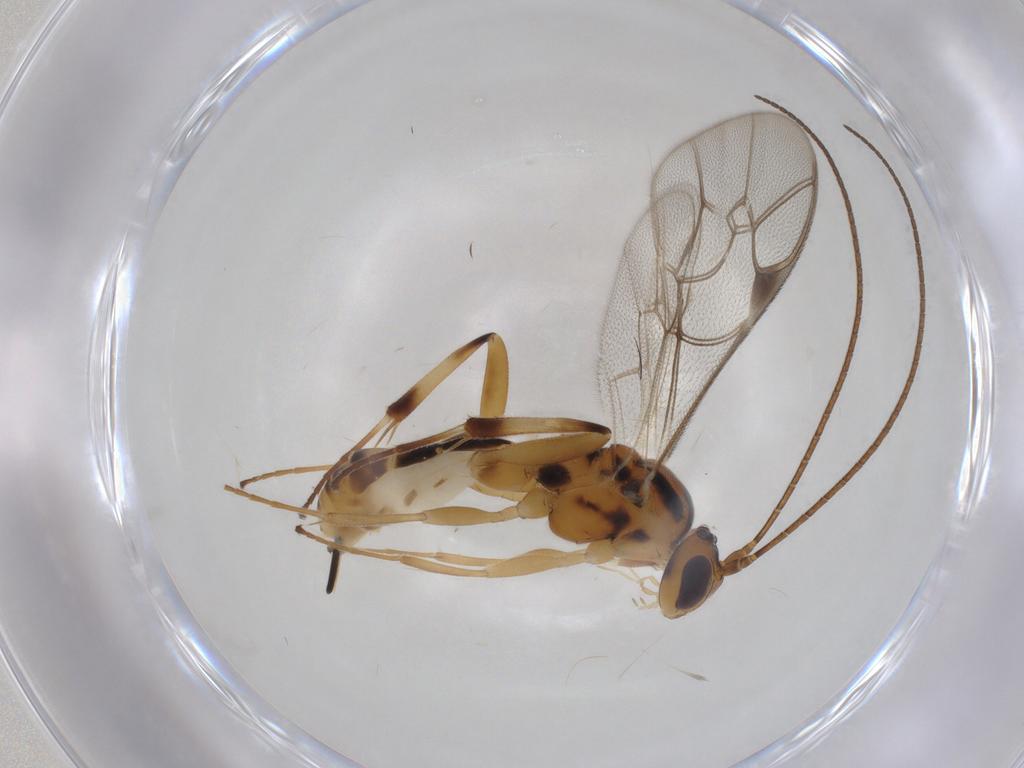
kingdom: Animalia
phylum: Arthropoda
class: Insecta
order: Hymenoptera
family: Ichneumonidae
